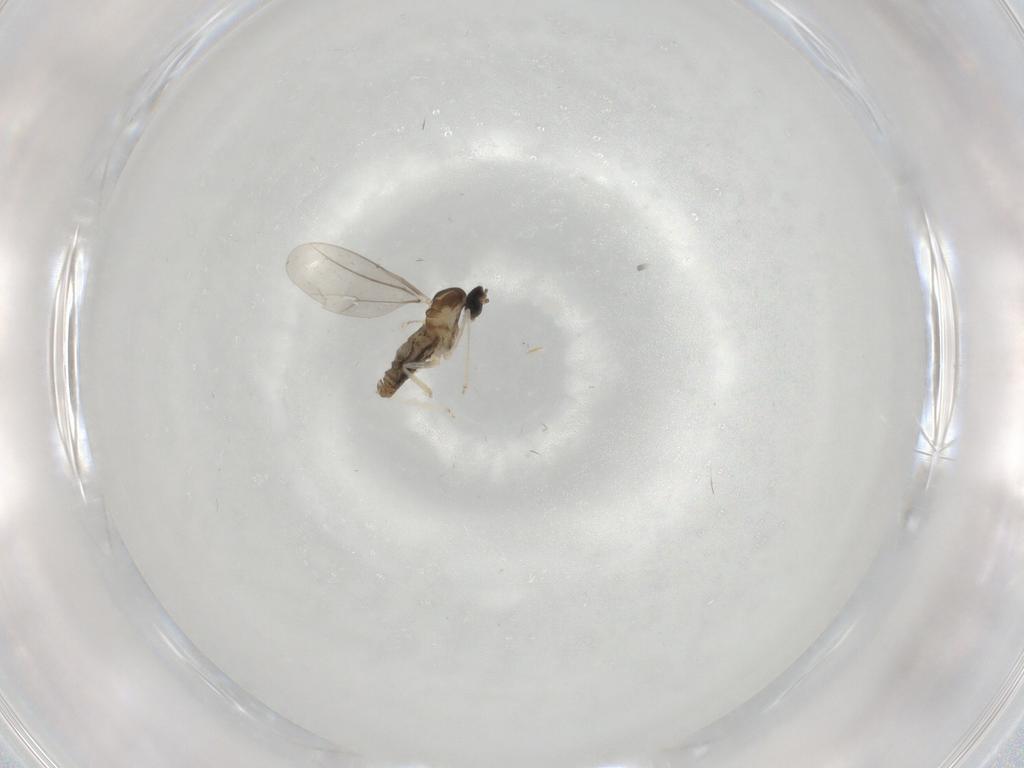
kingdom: Animalia
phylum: Arthropoda
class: Insecta
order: Diptera
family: Cecidomyiidae
